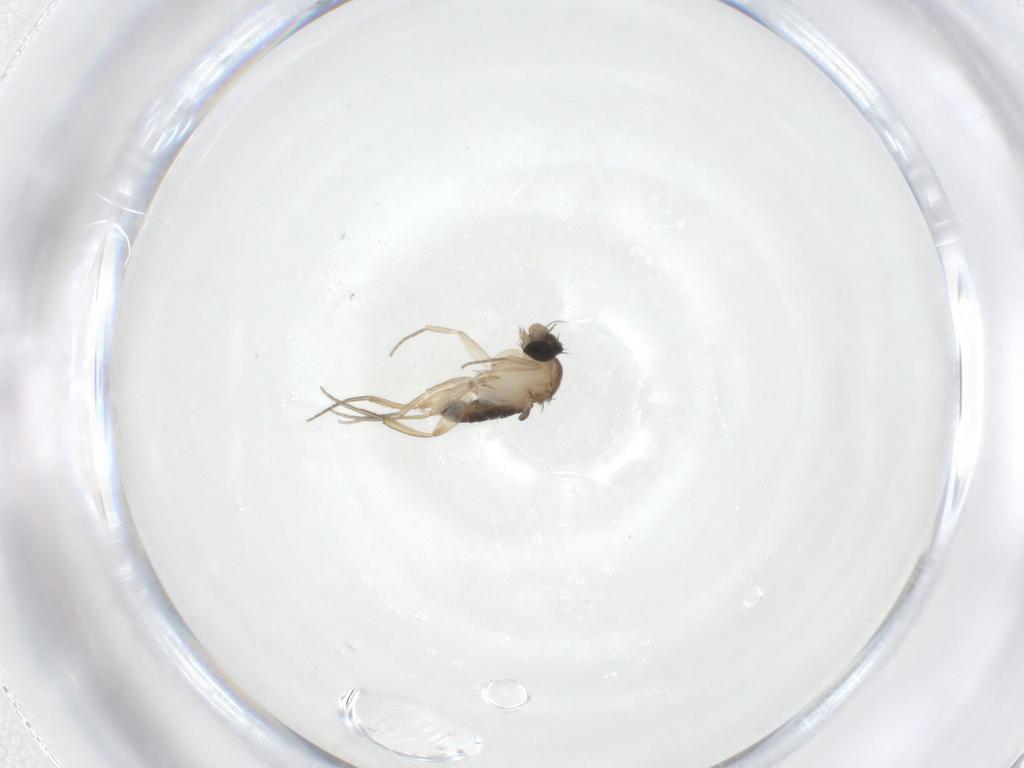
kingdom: Animalia
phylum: Arthropoda
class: Insecta
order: Diptera
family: Phoridae
